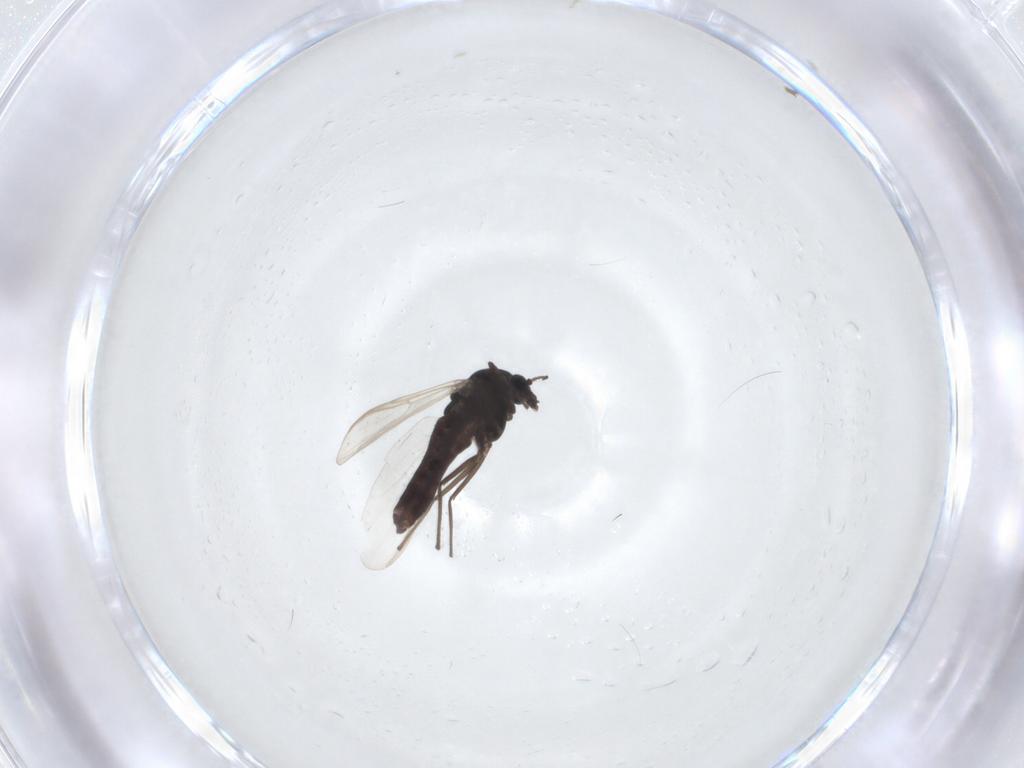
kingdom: Animalia
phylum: Arthropoda
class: Insecta
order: Diptera
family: Chironomidae
